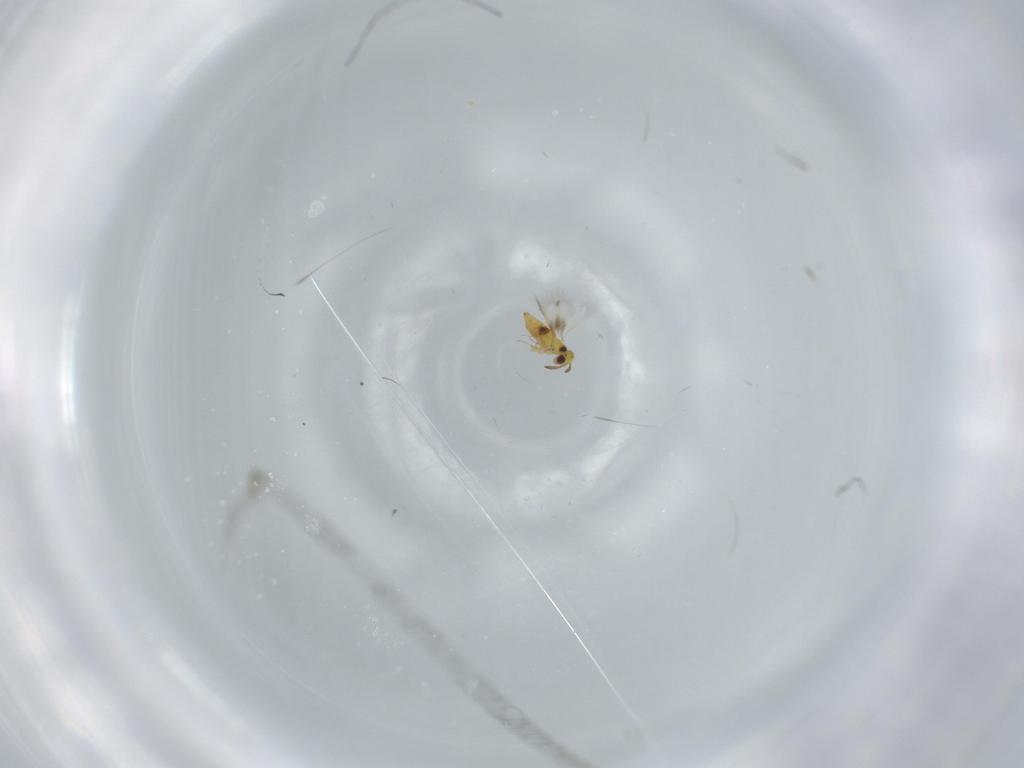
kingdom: Animalia
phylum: Arthropoda
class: Insecta
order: Hymenoptera
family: Signiphoridae
